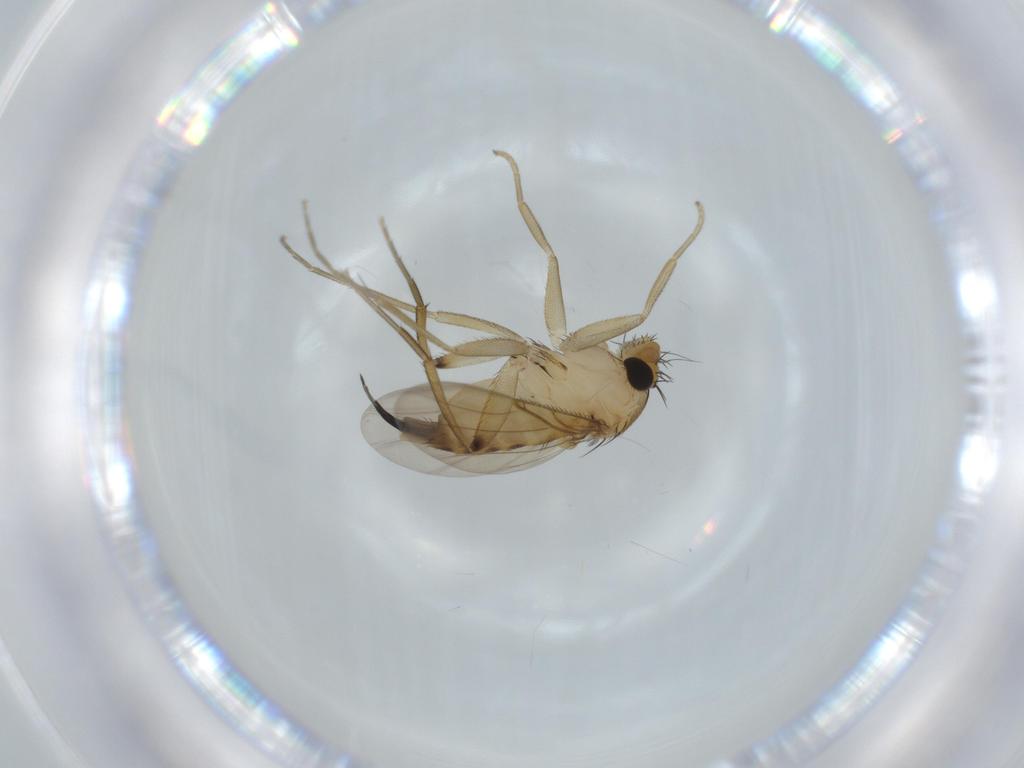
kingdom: Animalia
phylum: Arthropoda
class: Insecta
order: Diptera
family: Phoridae
